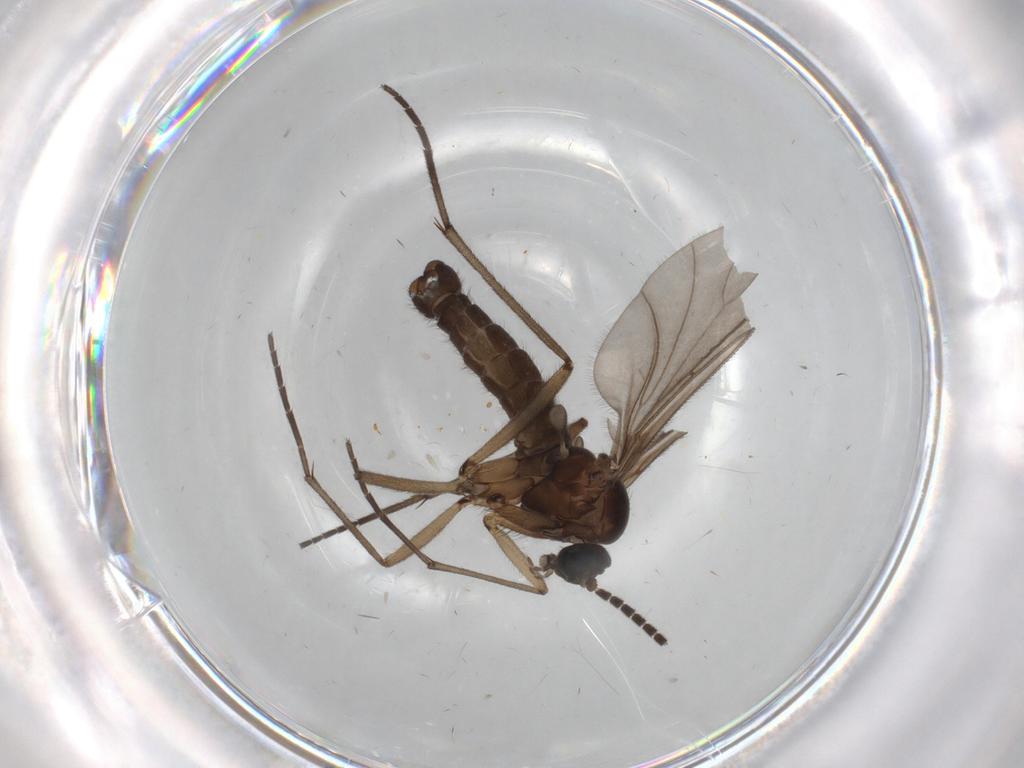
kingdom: Animalia
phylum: Arthropoda
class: Insecta
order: Diptera
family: Sciaridae
